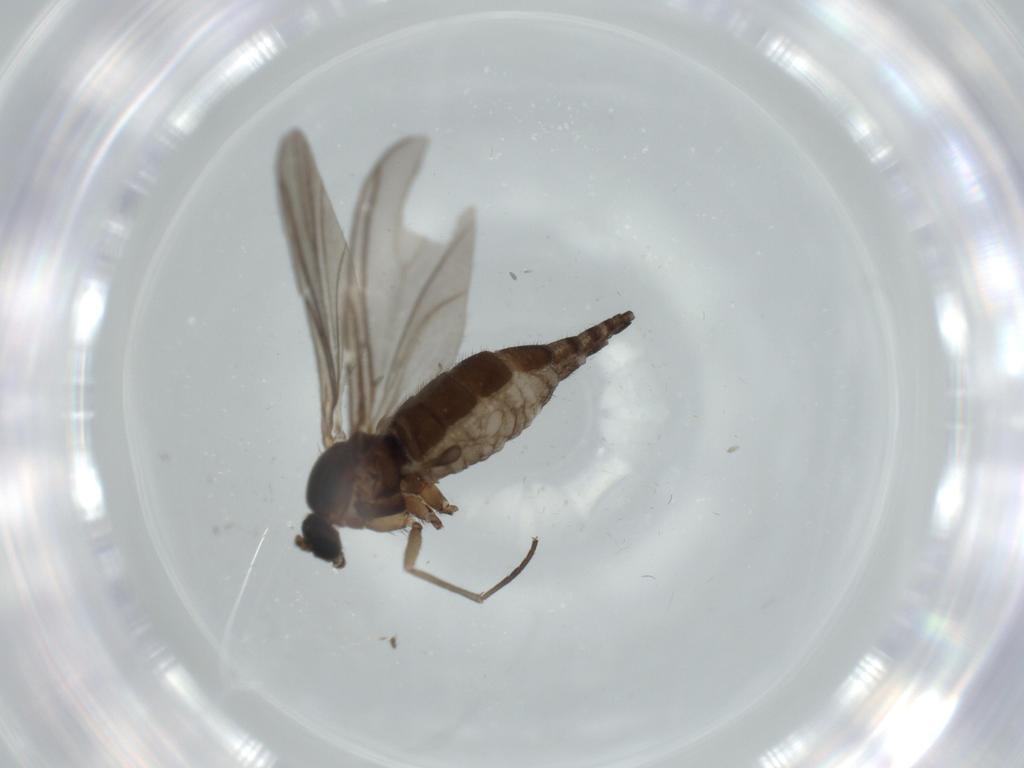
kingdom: Animalia
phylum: Arthropoda
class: Insecta
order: Diptera
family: Sciaridae
